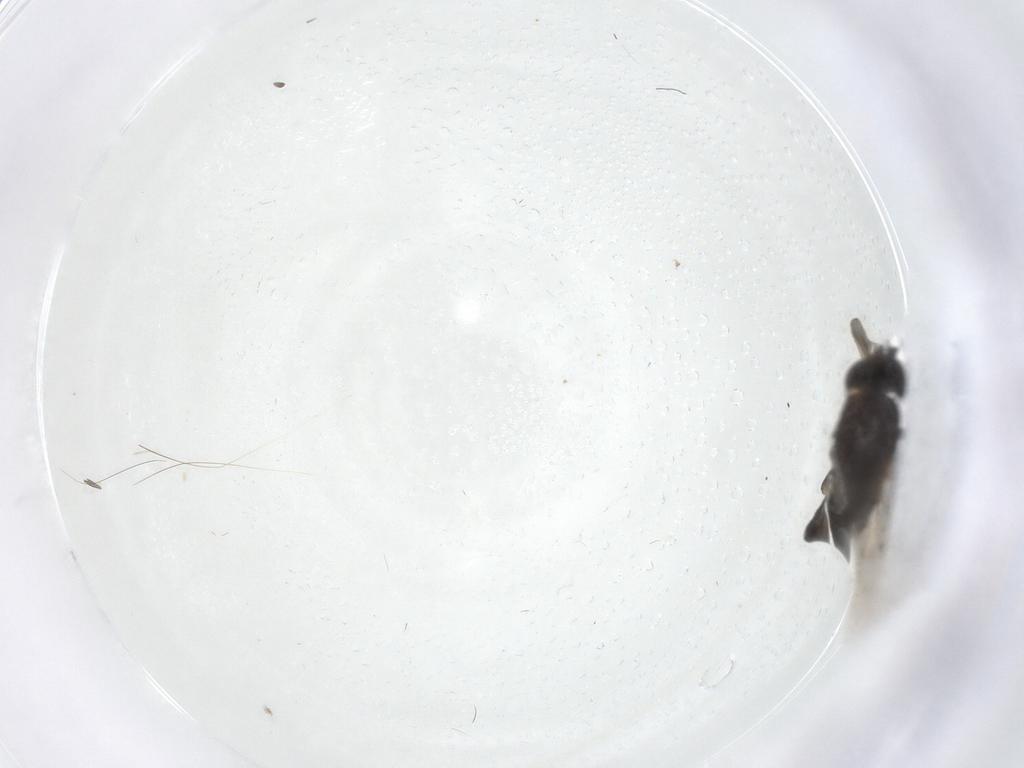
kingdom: Animalia
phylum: Arthropoda
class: Insecta
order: Diptera
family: Phoridae
